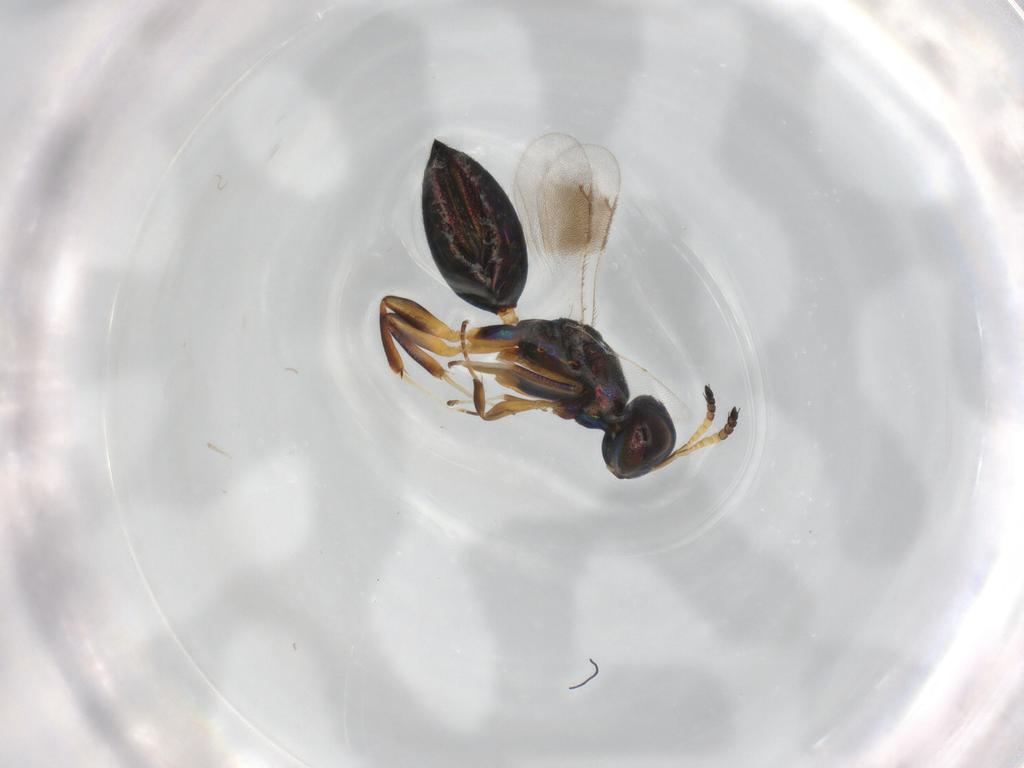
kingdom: Animalia
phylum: Arthropoda
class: Insecta
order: Hymenoptera
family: Cleonyminae
